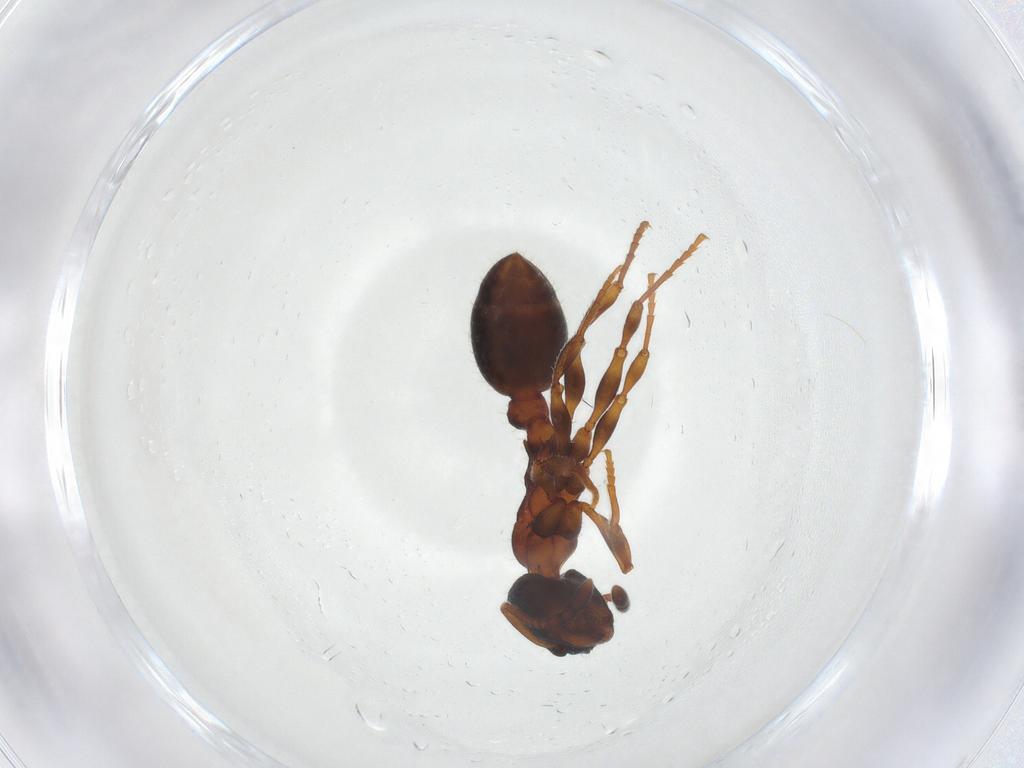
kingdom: Animalia
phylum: Arthropoda
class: Insecta
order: Hymenoptera
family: Formicidae
